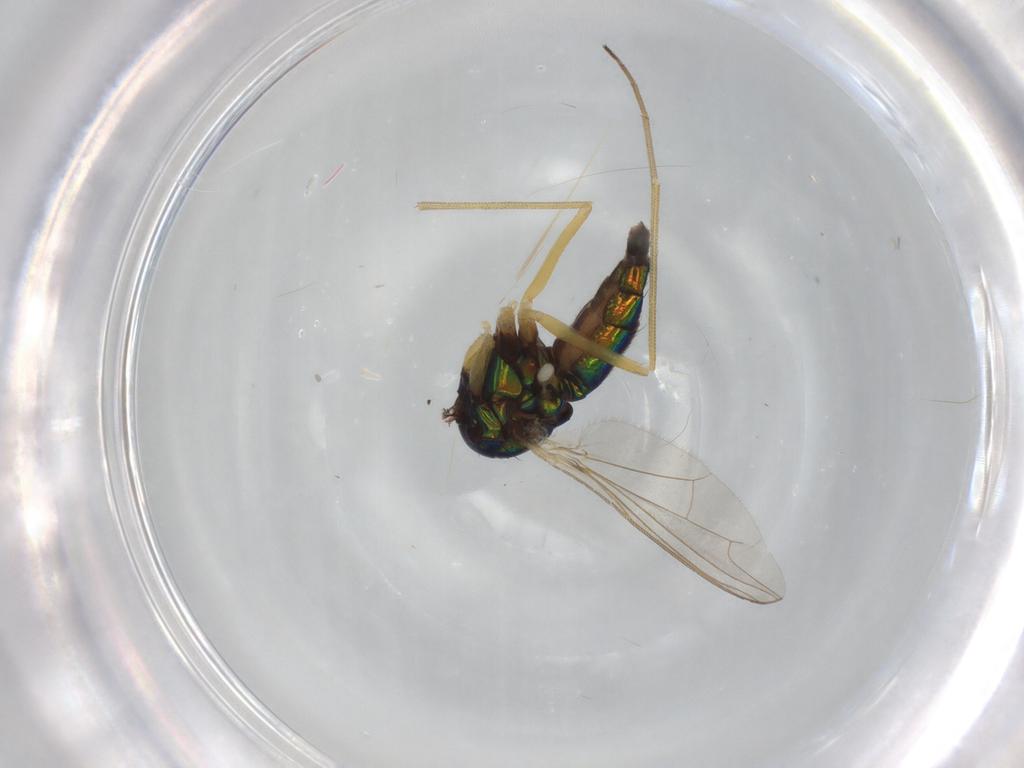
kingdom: Animalia
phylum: Arthropoda
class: Insecta
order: Diptera
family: Dolichopodidae
